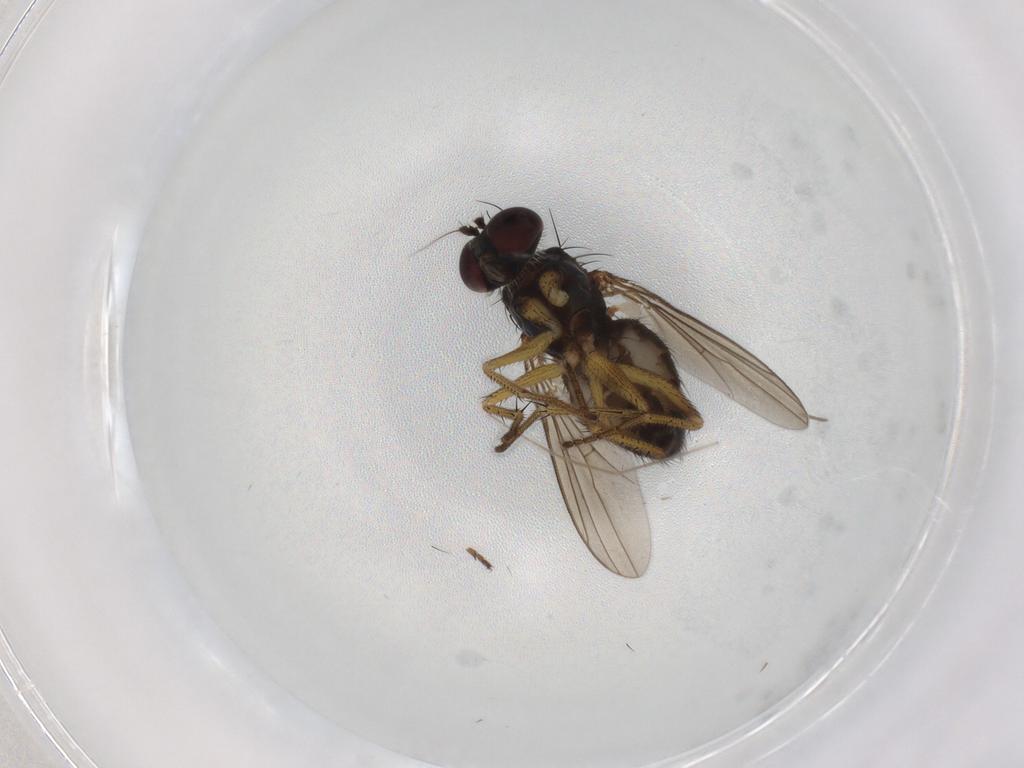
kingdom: Animalia
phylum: Arthropoda
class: Insecta
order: Diptera
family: Dolichopodidae
